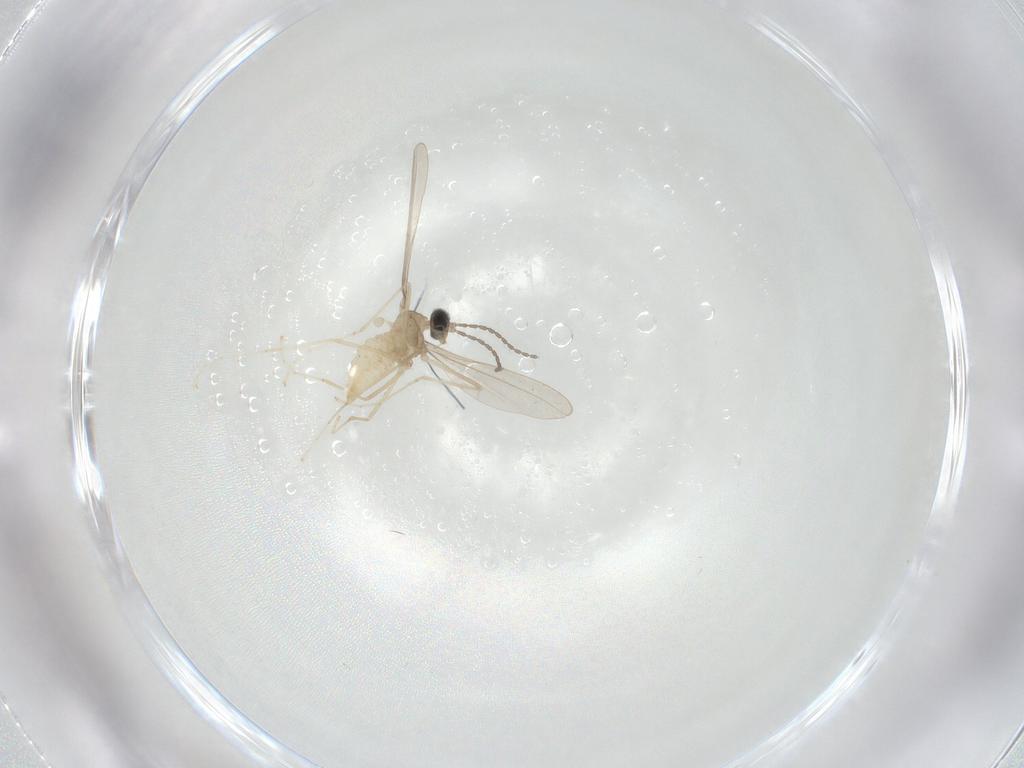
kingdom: Animalia
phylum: Arthropoda
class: Insecta
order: Diptera
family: Cecidomyiidae
